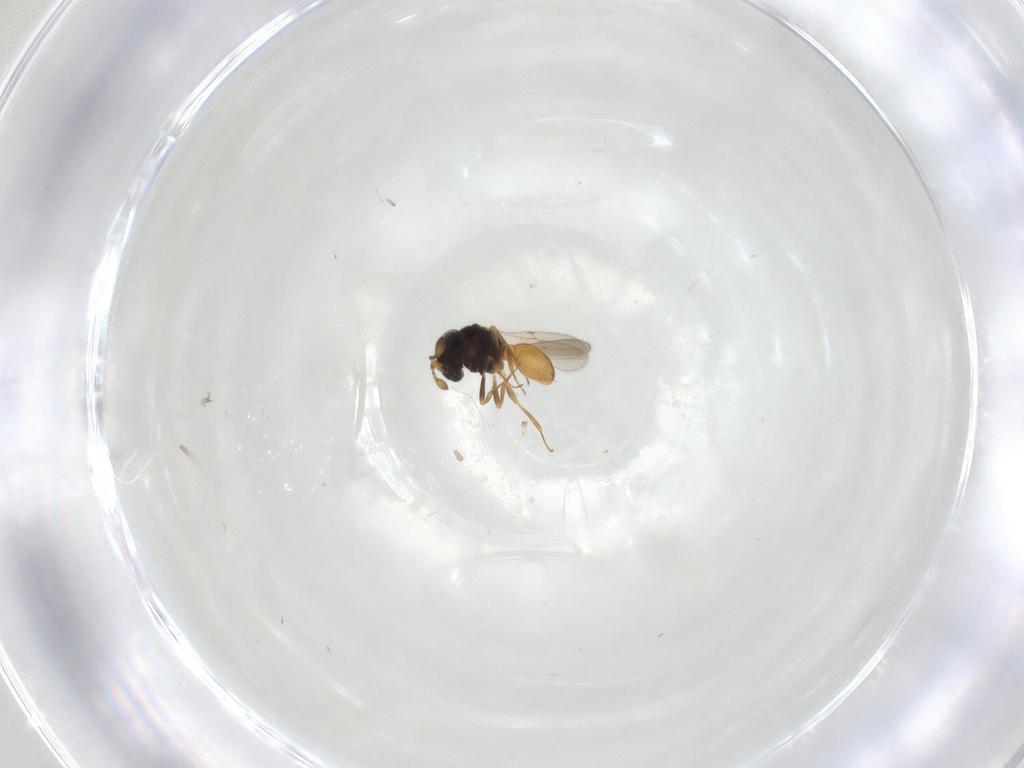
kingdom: Animalia
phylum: Arthropoda
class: Insecta
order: Hymenoptera
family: Scelionidae
